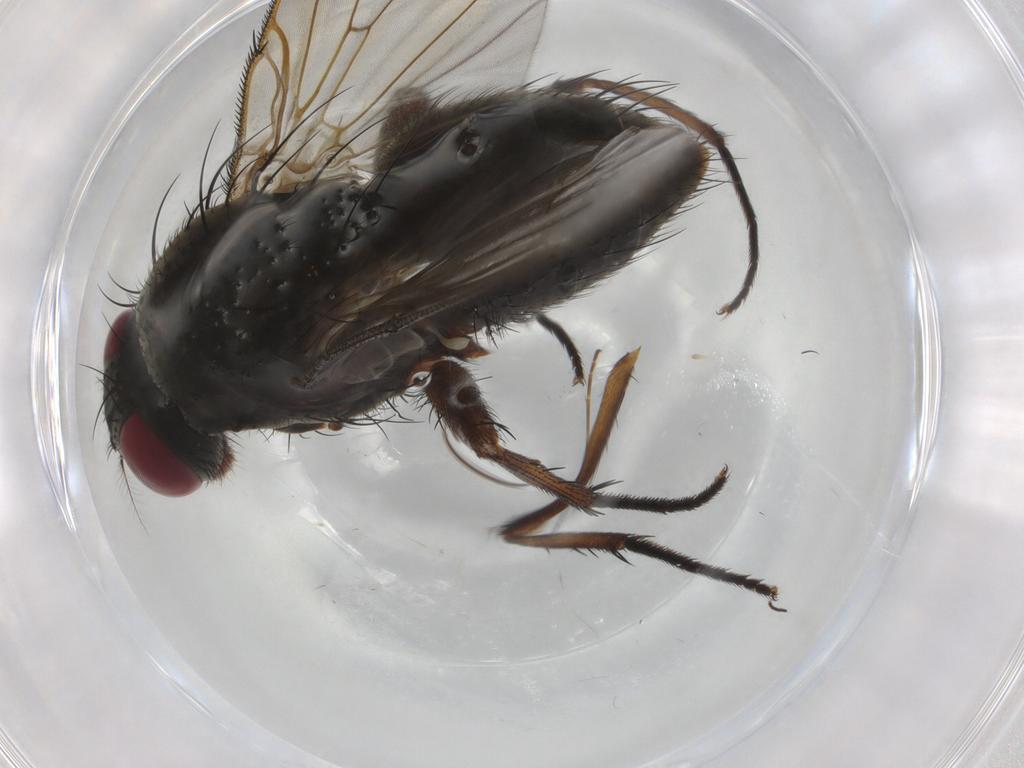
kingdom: Animalia
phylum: Arthropoda
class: Insecta
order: Diptera
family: Muscidae
